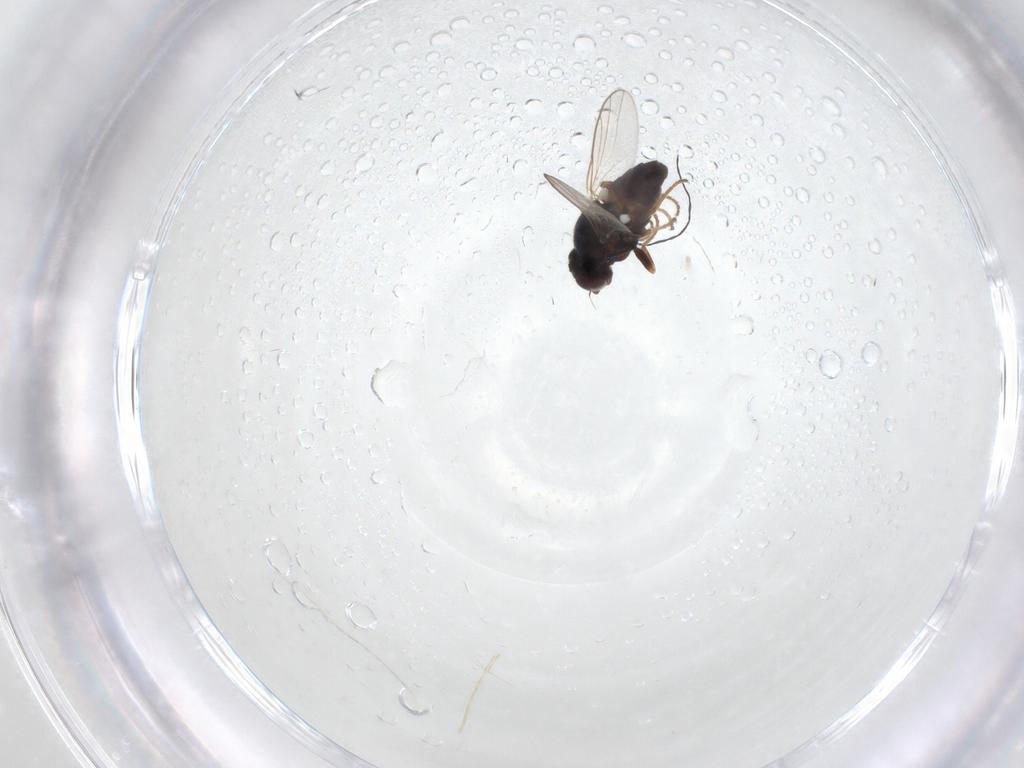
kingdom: Animalia
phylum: Arthropoda
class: Insecta
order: Diptera
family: Chloropidae
